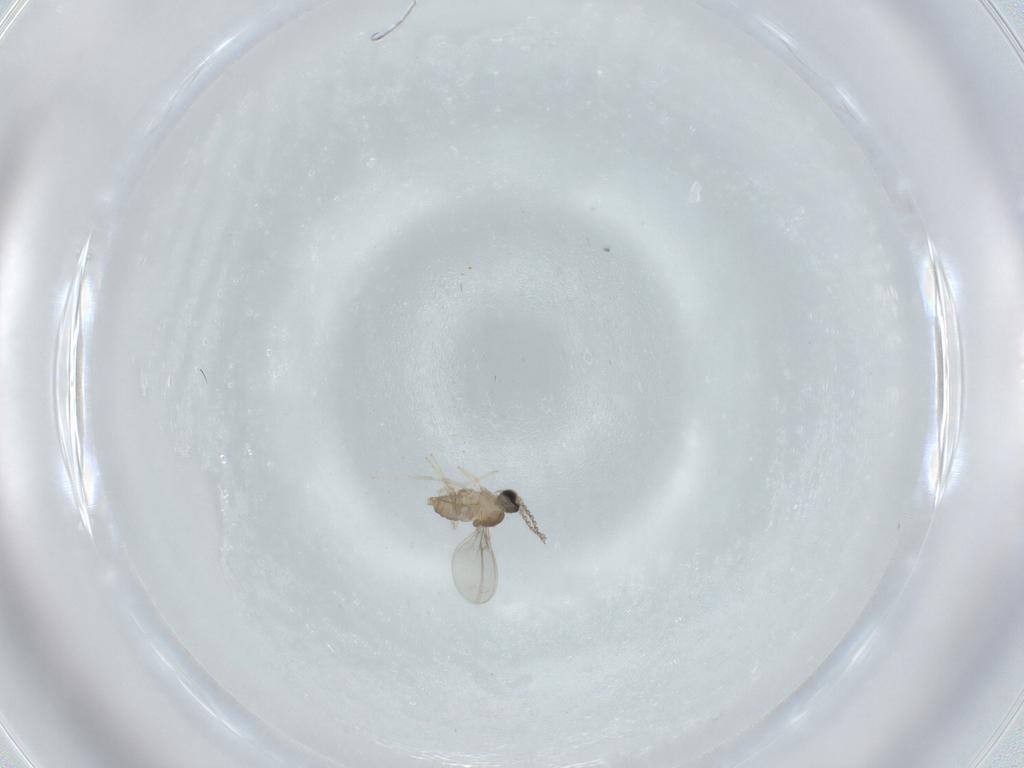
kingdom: Animalia
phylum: Arthropoda
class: Insecta
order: Diptera
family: Cecidomyiidae
